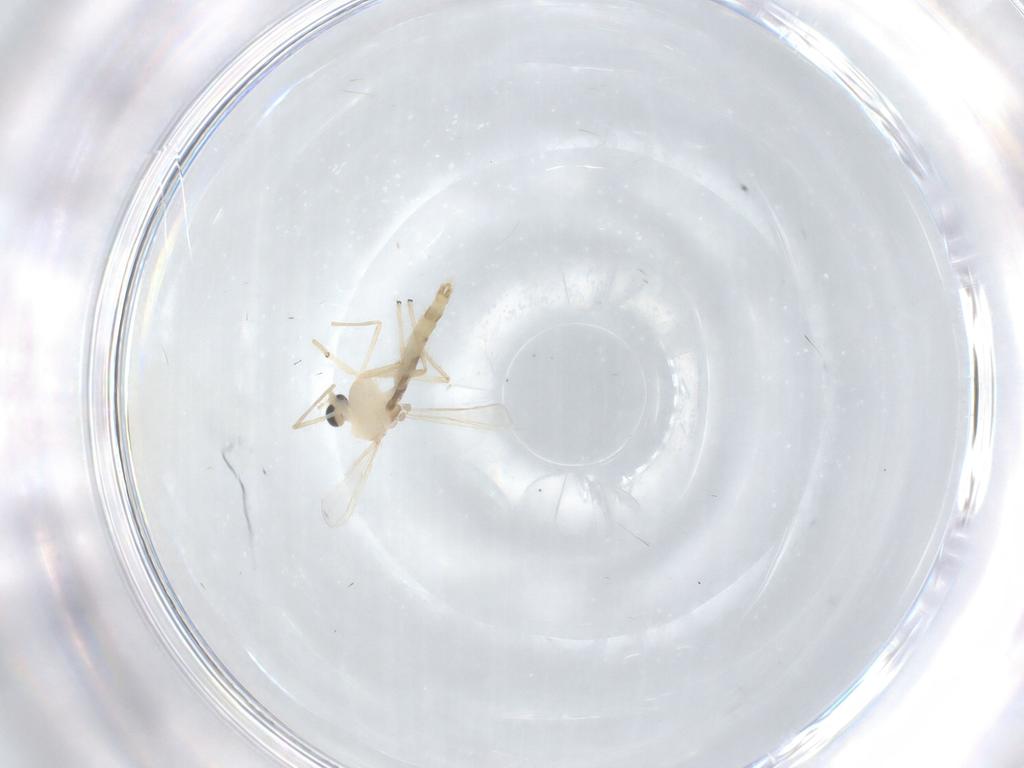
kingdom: Animalia
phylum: Arthropoda
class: Insecta
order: Diptera
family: Chironomidae
